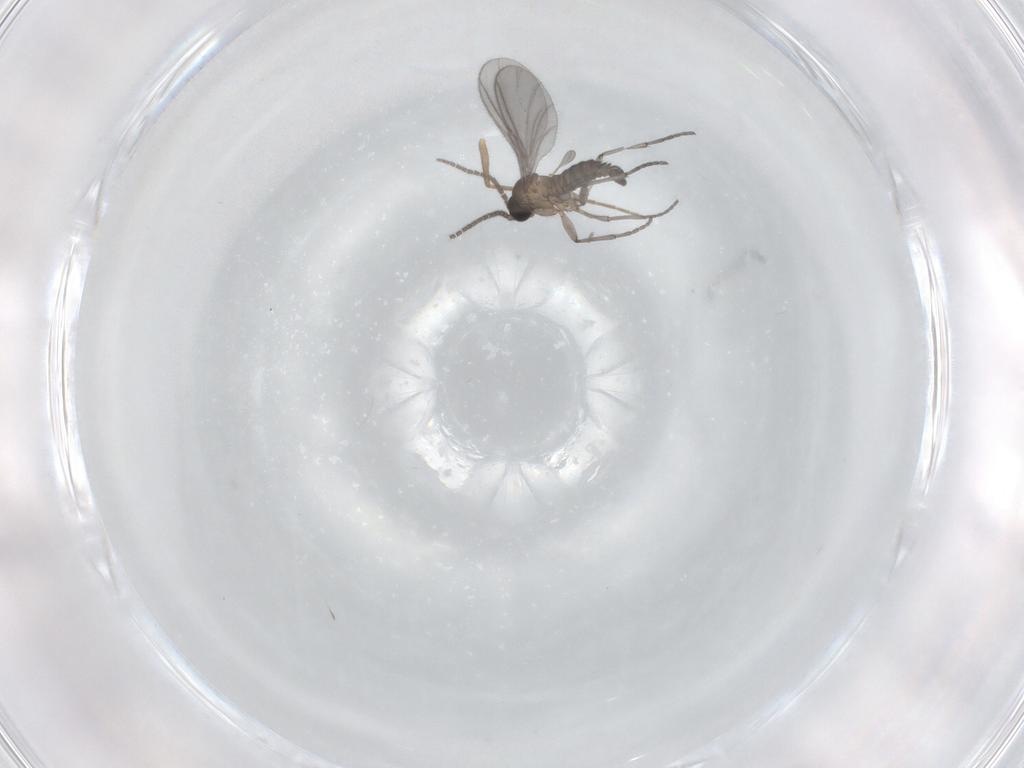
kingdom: Animalia
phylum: Arthropoda
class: Insecta
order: Diptera
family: Sciaridae
